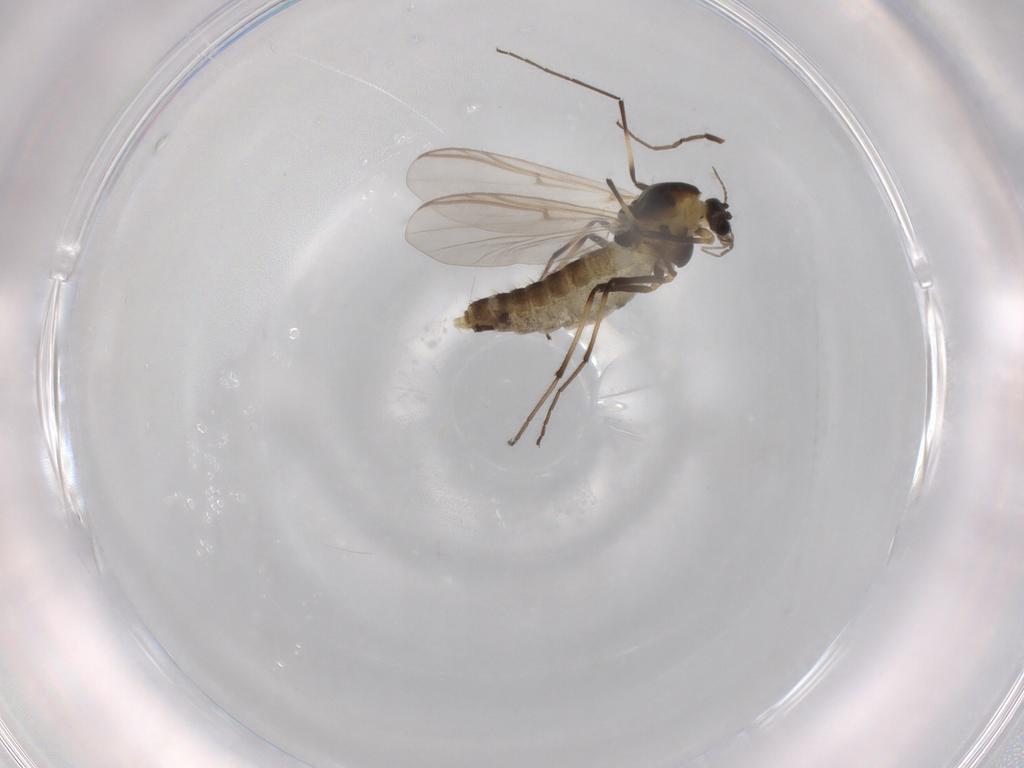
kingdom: Animalia
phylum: Arthropoda
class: Insecta
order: Diptera
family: Chironomidae
